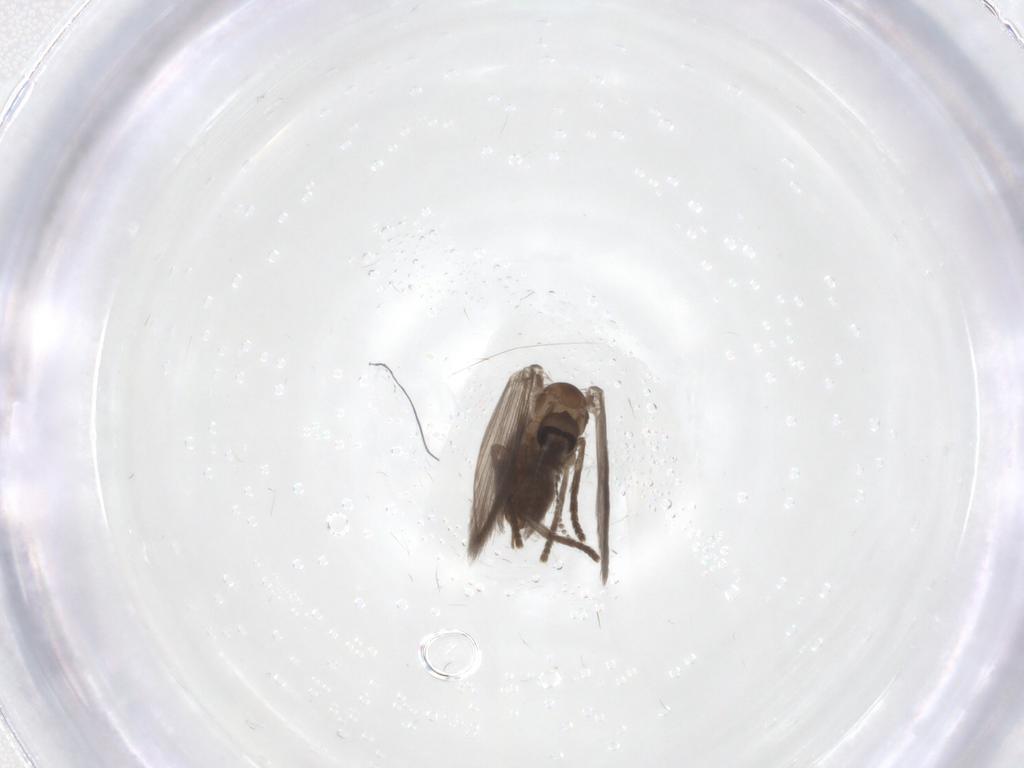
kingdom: Animalia
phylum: Arthropoda
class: Insecta
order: Diptera
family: Psychodidae
